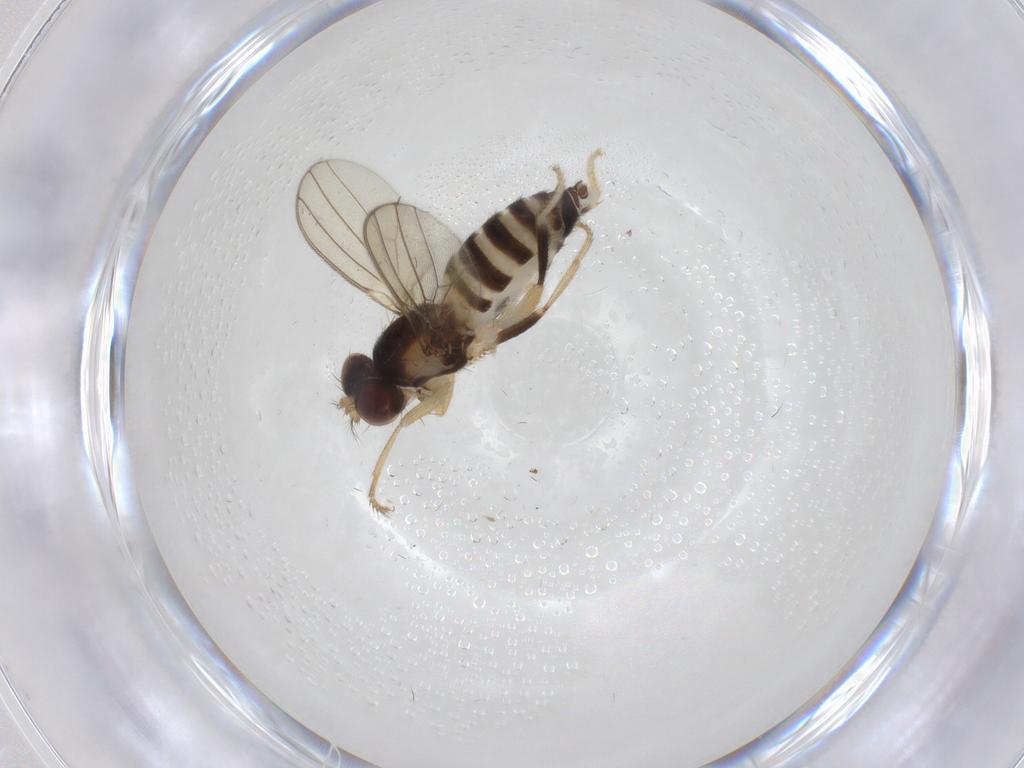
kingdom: Animalia
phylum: Arthropoda
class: Insecta
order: Diptera
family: Periscelididae
